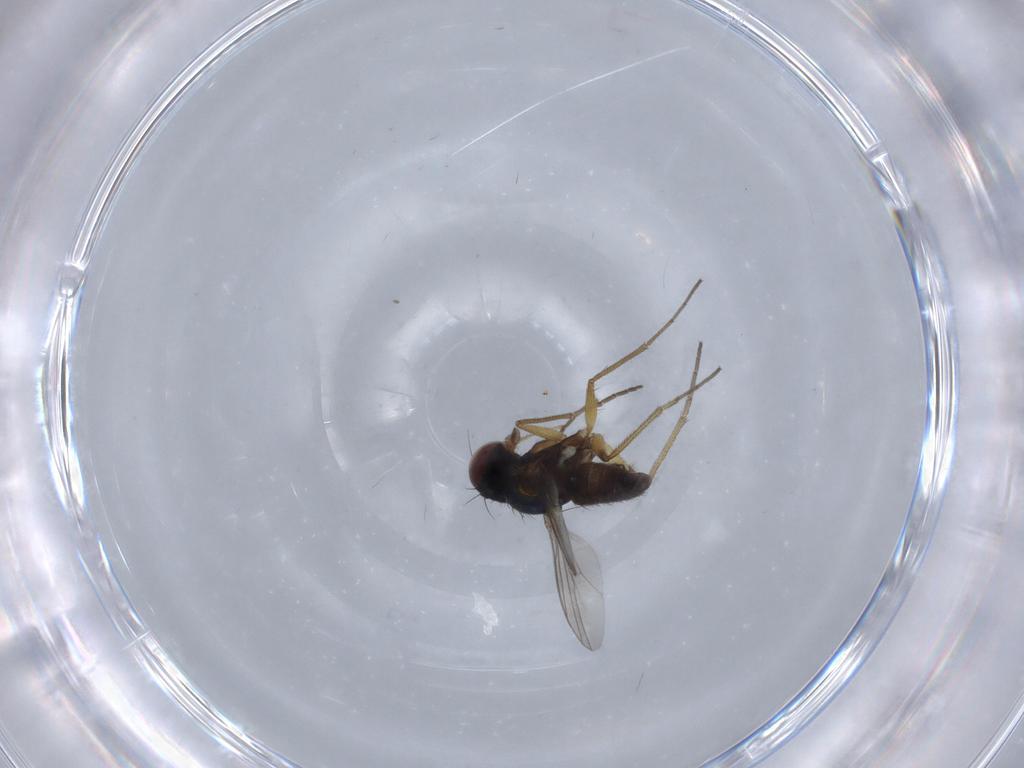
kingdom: Animalia
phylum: Arthropoda
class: Insecta
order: Diptera
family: Dolichopodidae
